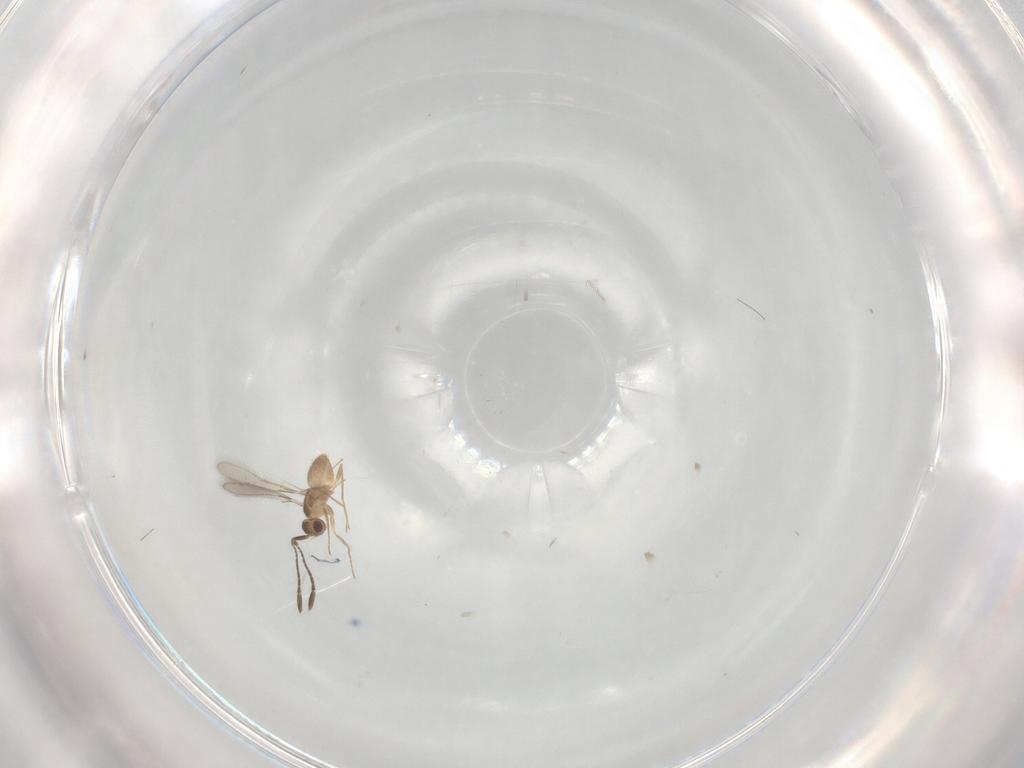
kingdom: Animalia
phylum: Arthropoda
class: Insecta
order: Hymenoptera
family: Mymaridae
